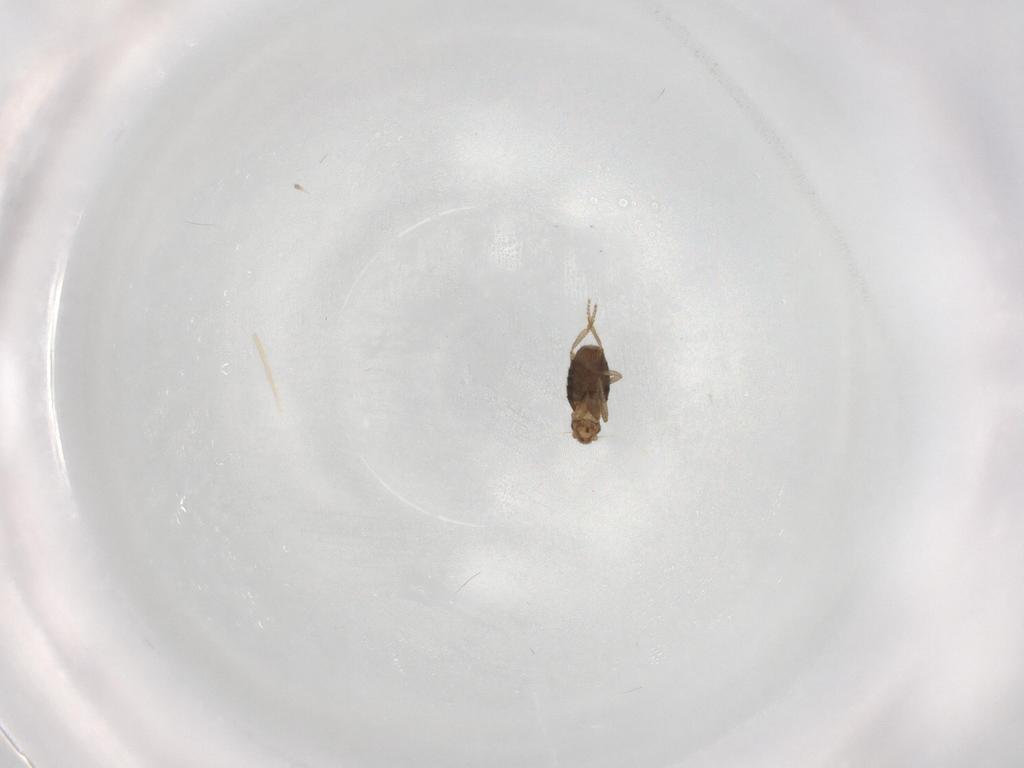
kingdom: Animalia
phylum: Arthropoda
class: Insecta
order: Diptera
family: Phoridae
